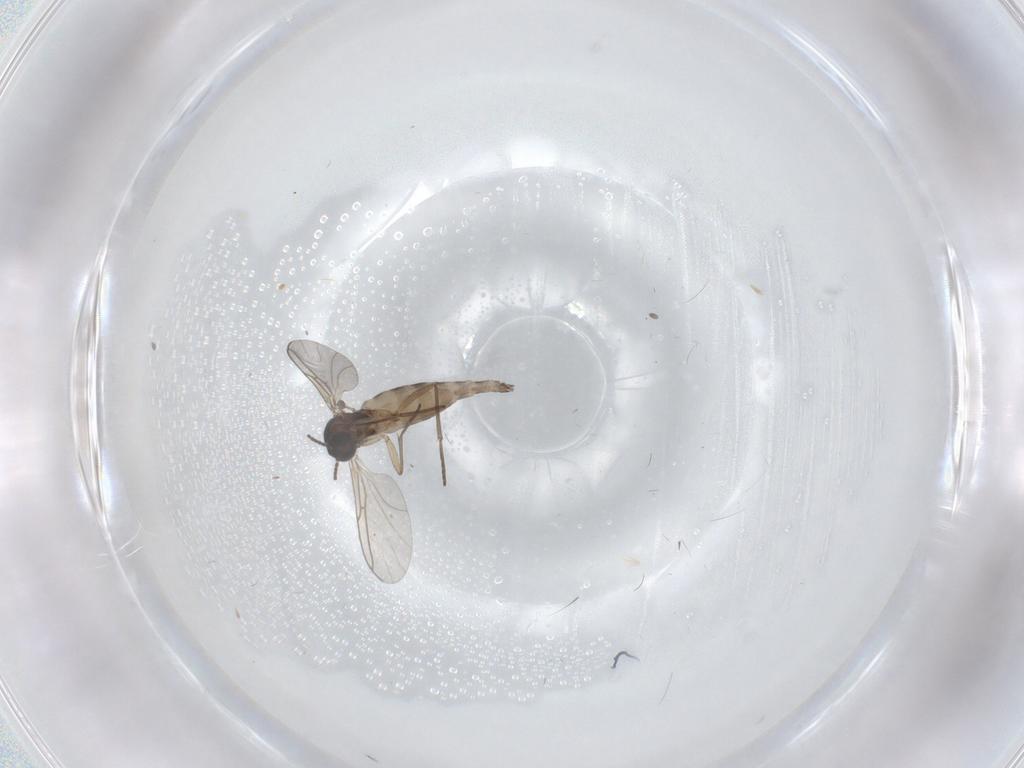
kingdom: Animalia
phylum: Arthropoda
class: Insecta
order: Diptera
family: Sciaridae
